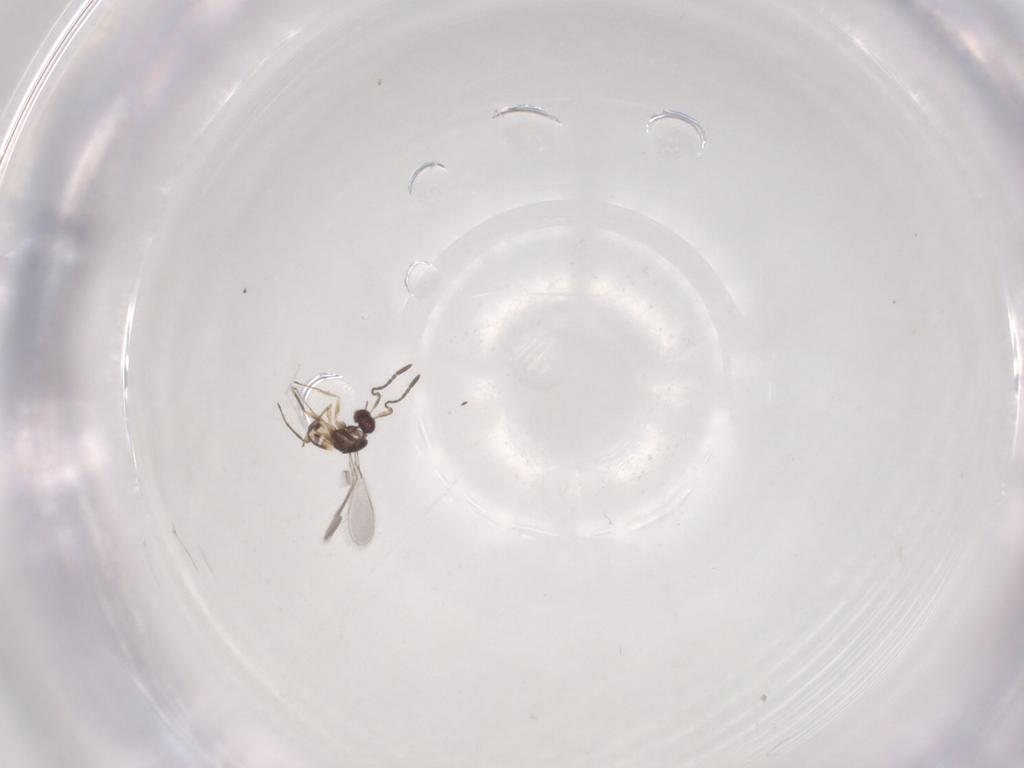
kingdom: Animalia
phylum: Arthropoda
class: Insecta
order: Hymenoptera
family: Mymaridae
